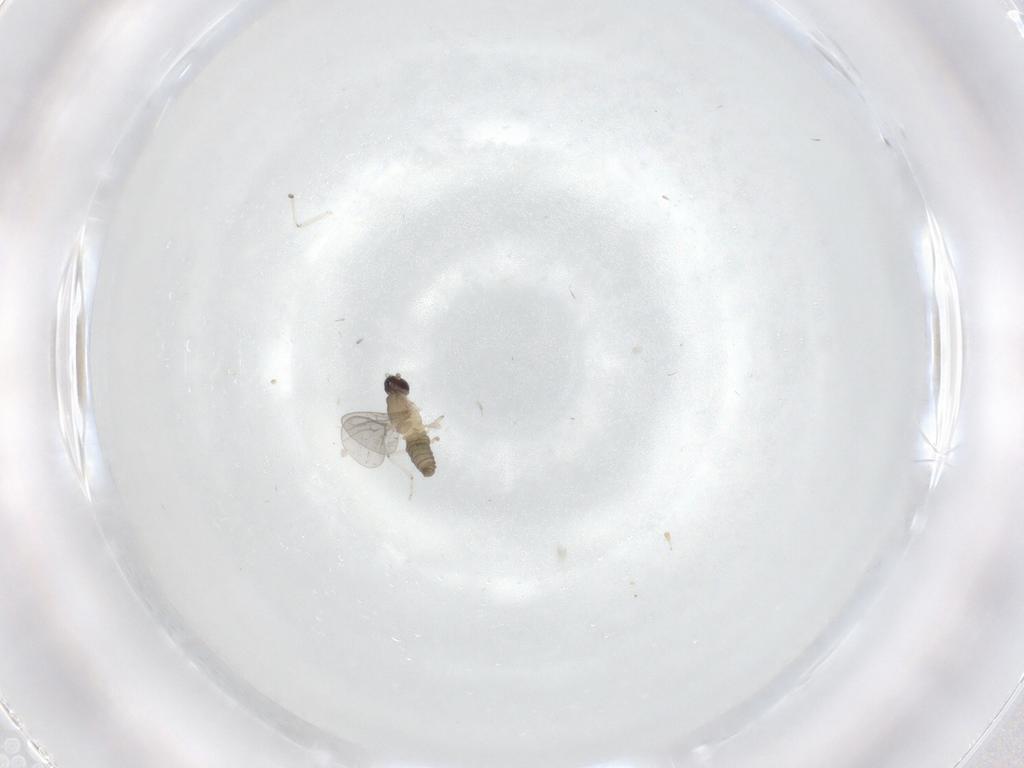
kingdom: Animalia
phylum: Arthropoda
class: Insecta
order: Diptera
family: Cecidomyiidae
